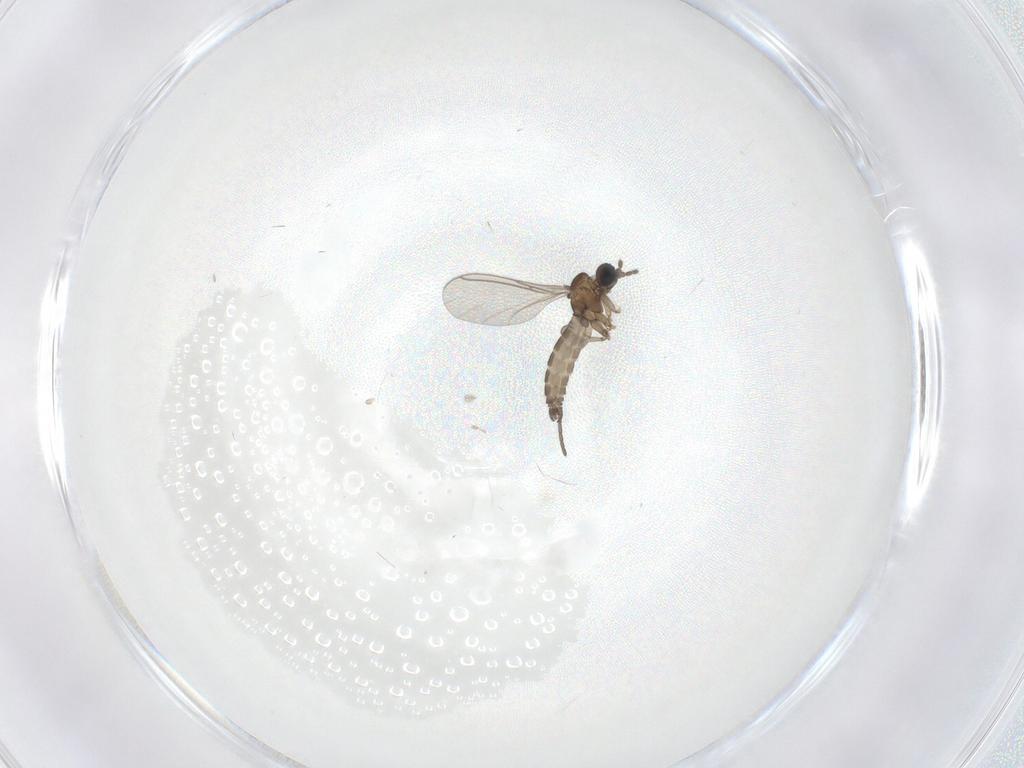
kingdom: Animalia
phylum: Arthropoda
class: Insecta
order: Diptera
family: Sciaridae
